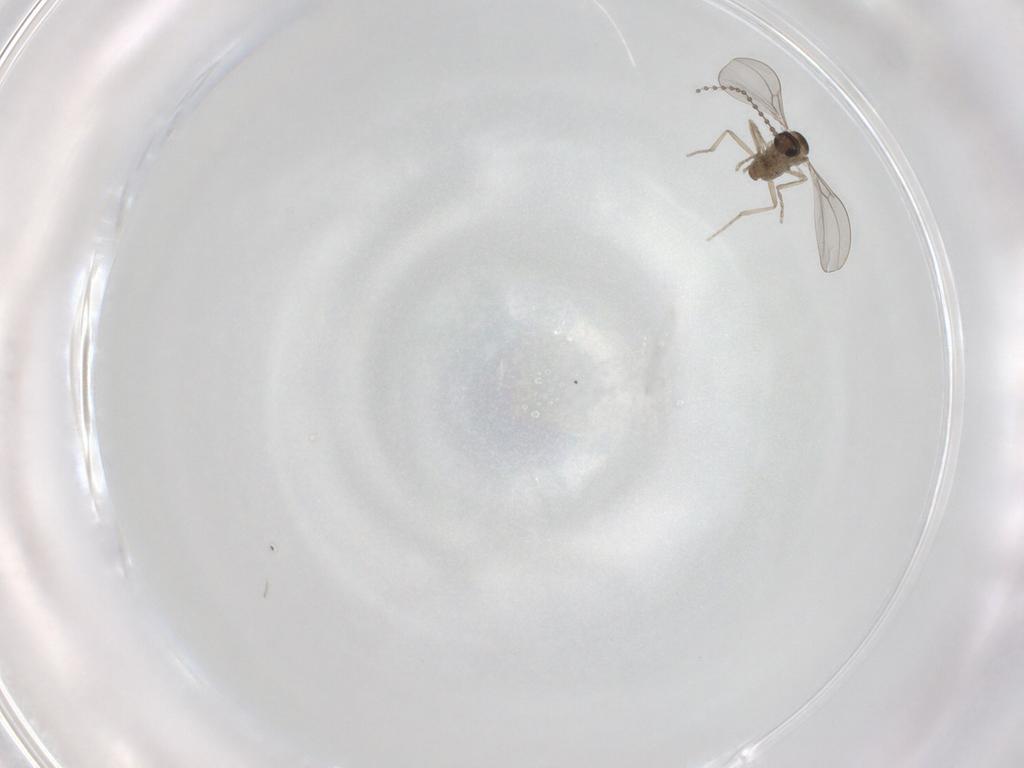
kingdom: Animalia
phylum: Arthropoda
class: Insecta
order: Diptera
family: Cecidomyiidae
